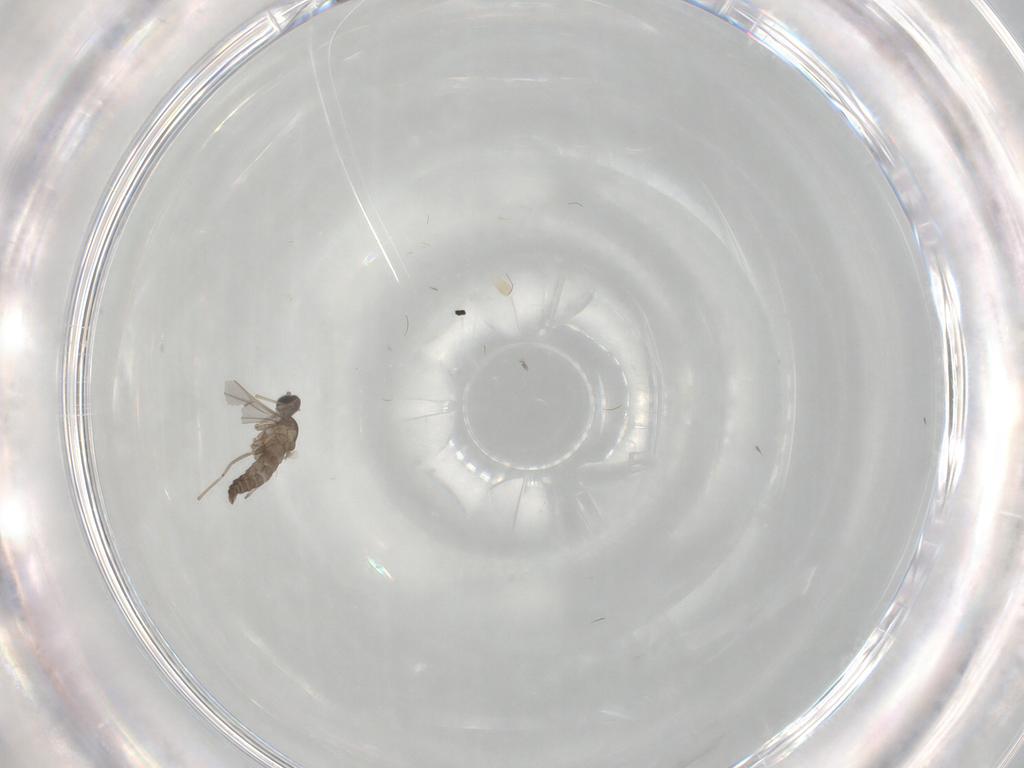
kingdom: Animalia
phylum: Arthropoda
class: Insecta
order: Diptera
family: Cecidomyiidae
